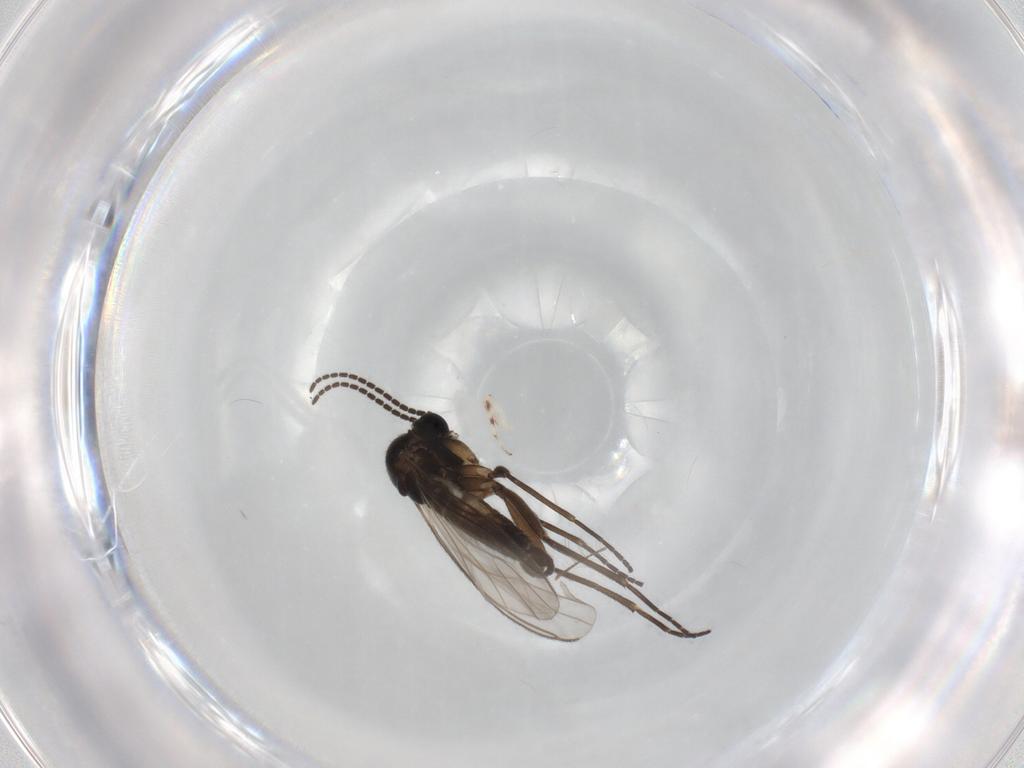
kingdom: Animalia
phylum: Arthropoda
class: Insecta
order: Diptera
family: Sciaridae
